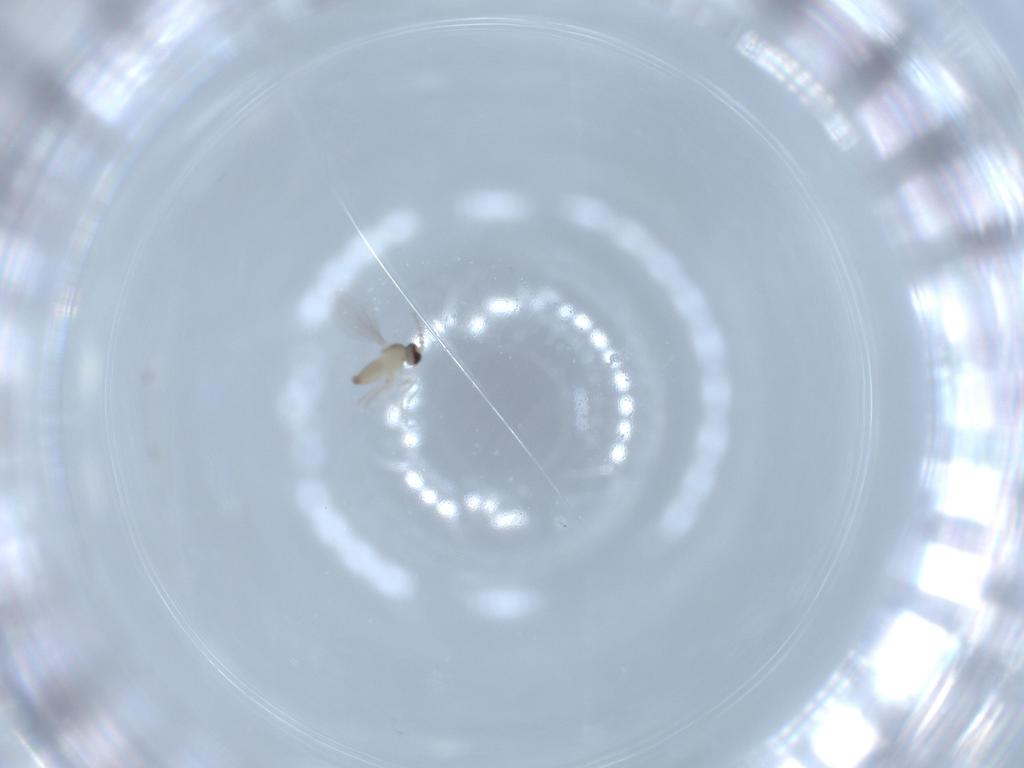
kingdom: Animalia
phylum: Arthropoda
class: Insecta
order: Diptera
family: Cecidomyiidae
